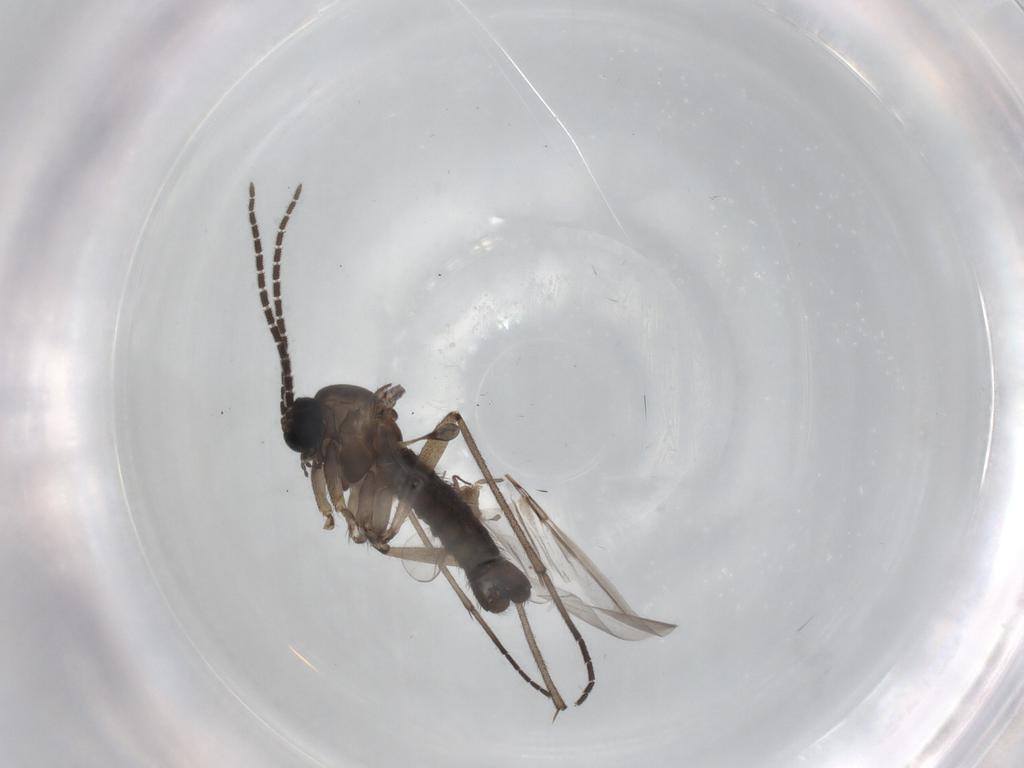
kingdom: Animalia
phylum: Arthropoda
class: Insecta
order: Diptera
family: Chironomidae
